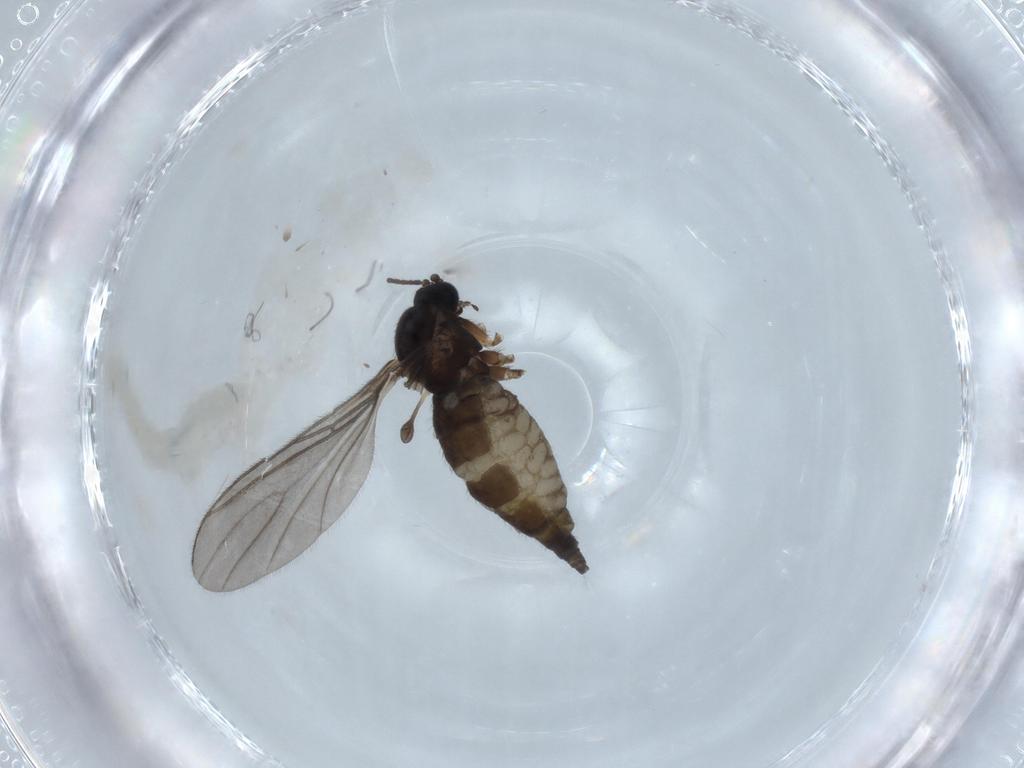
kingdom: Animalia
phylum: Arthropoda
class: Insecta
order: Diptera
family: Sciaridae
